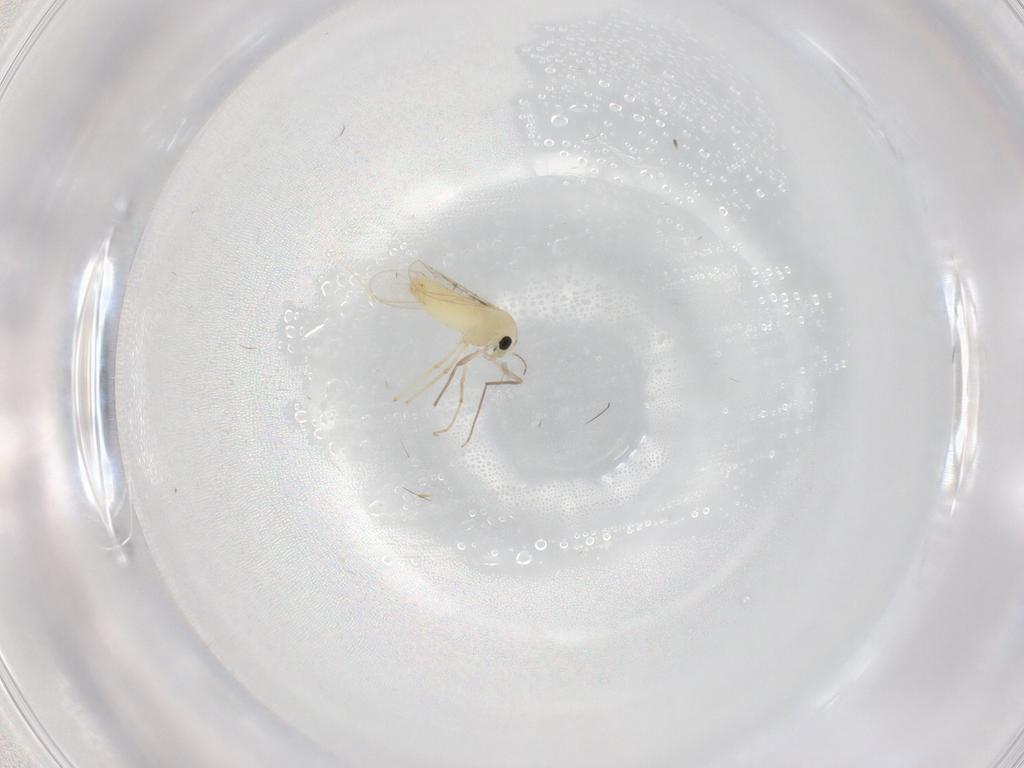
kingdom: Animalia
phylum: Arthropoda
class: Insecta
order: Diptera
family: Chironomidae
